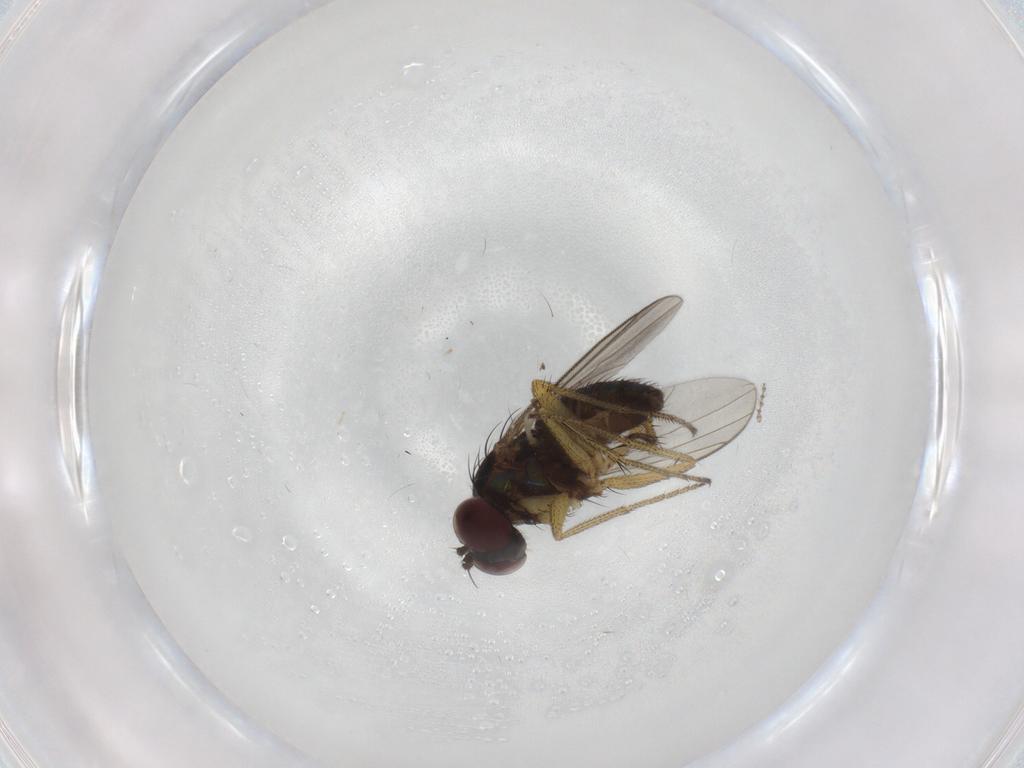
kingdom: Animalia
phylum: Arthropoda
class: Insecta
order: Diptera
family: Chironomidae
